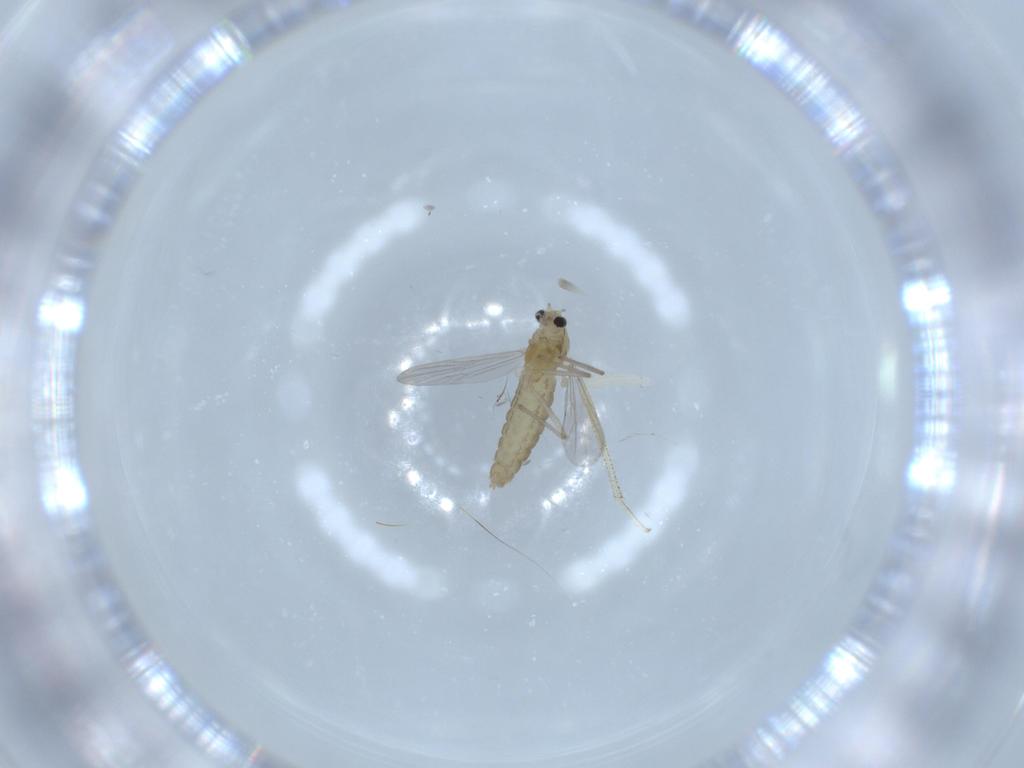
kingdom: Animalia
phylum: Arthropoda
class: Insecta
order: Diptera
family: Chironomidae
